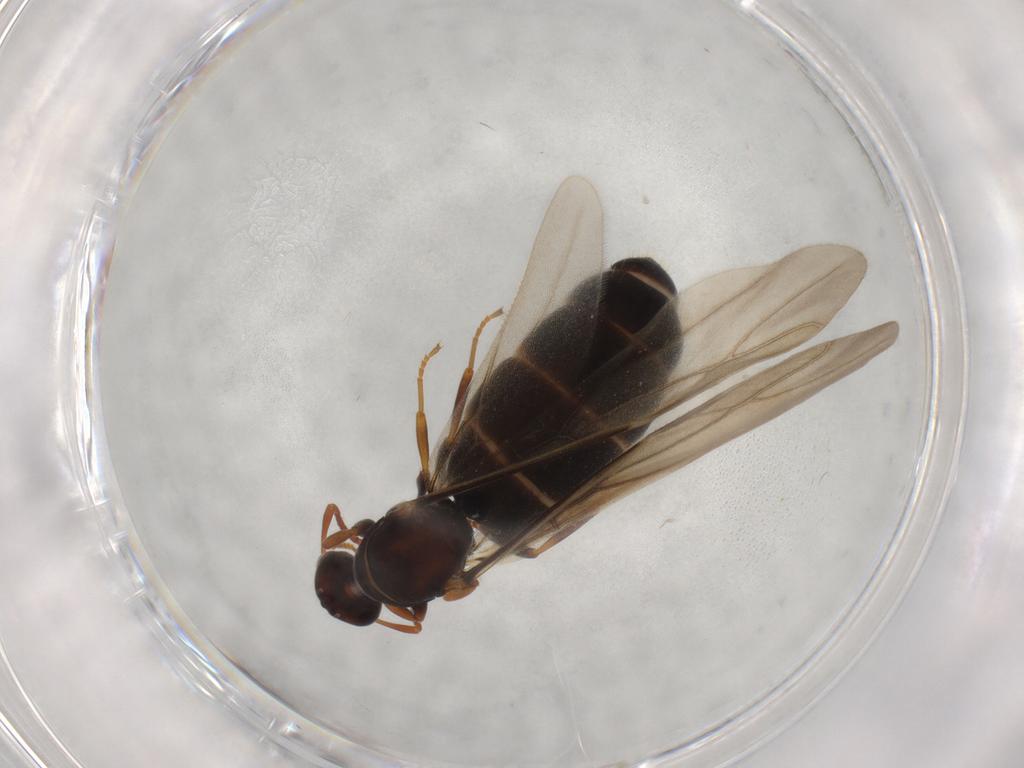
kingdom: Animalia
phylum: Arthropoda
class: Insecta
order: Hymenoptera
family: Formicidae
